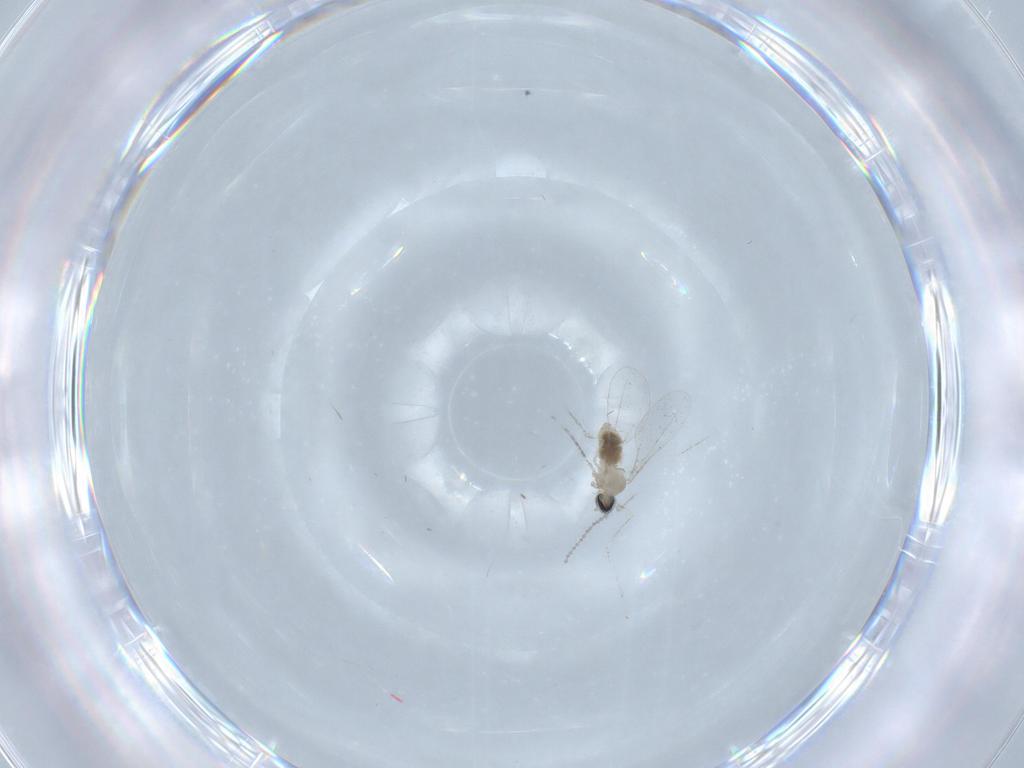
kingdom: Animalia
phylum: Arthropoda
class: Insecta
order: Diptera
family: Cecidomyiidae
